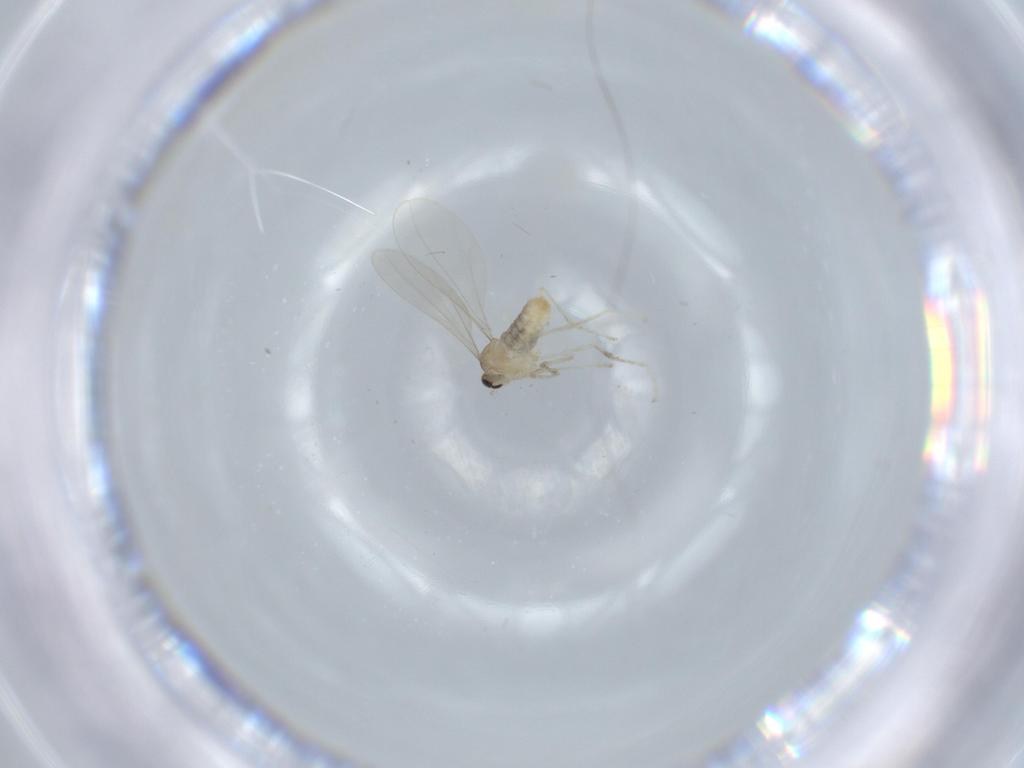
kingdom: Animalia
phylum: Arthropoda
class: Insecta
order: Diptera
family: Cecidomyiidae
